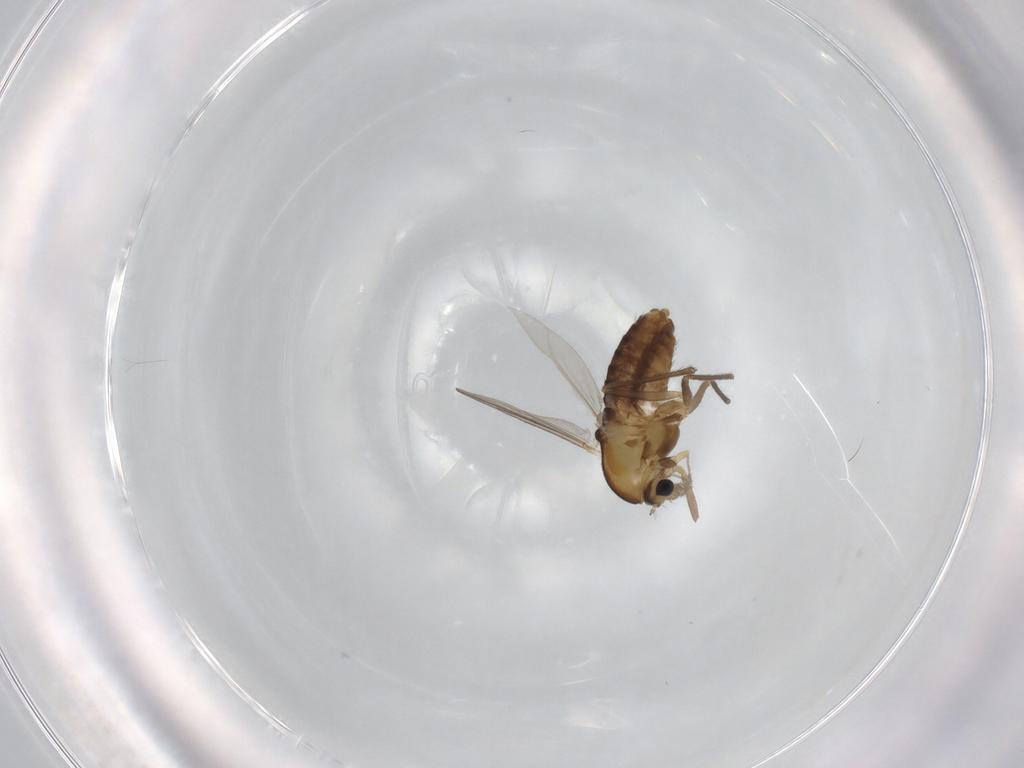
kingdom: Animalia
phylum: Arthropoda
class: Insecta
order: Diptera
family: Chironomidae
